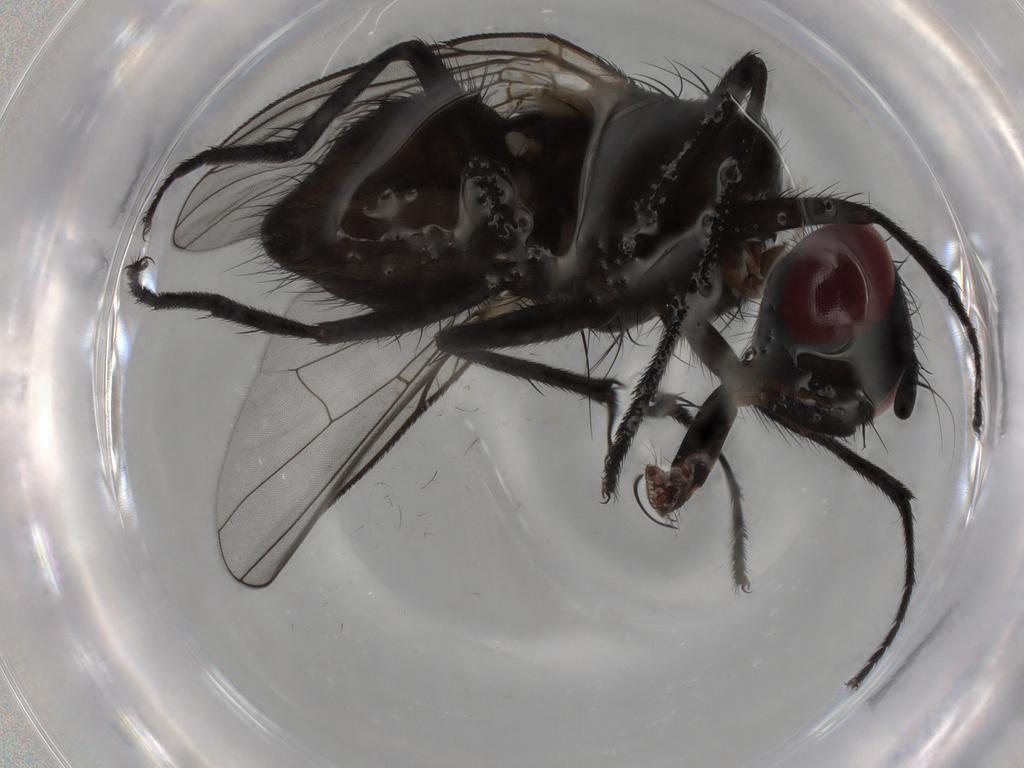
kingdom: Animalia
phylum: Arthropoda
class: Insecta
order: Diptera
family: Muscidae
